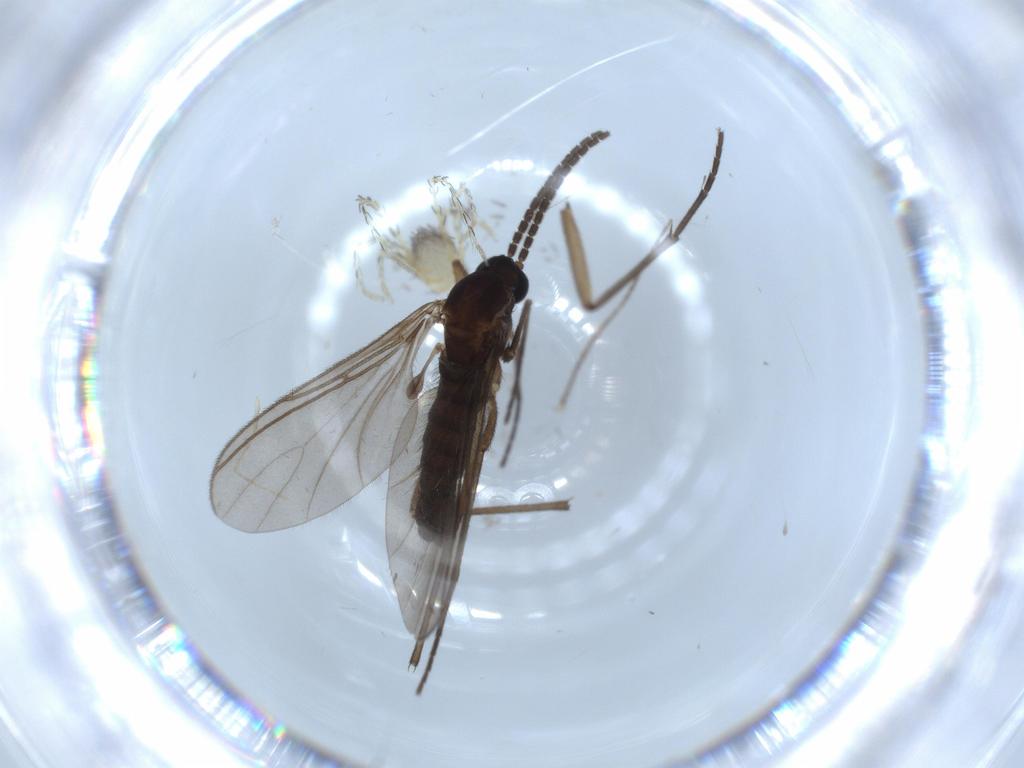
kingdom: Animalia
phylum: Arthropoda
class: Insecta
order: Diptera
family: Sciaridae
